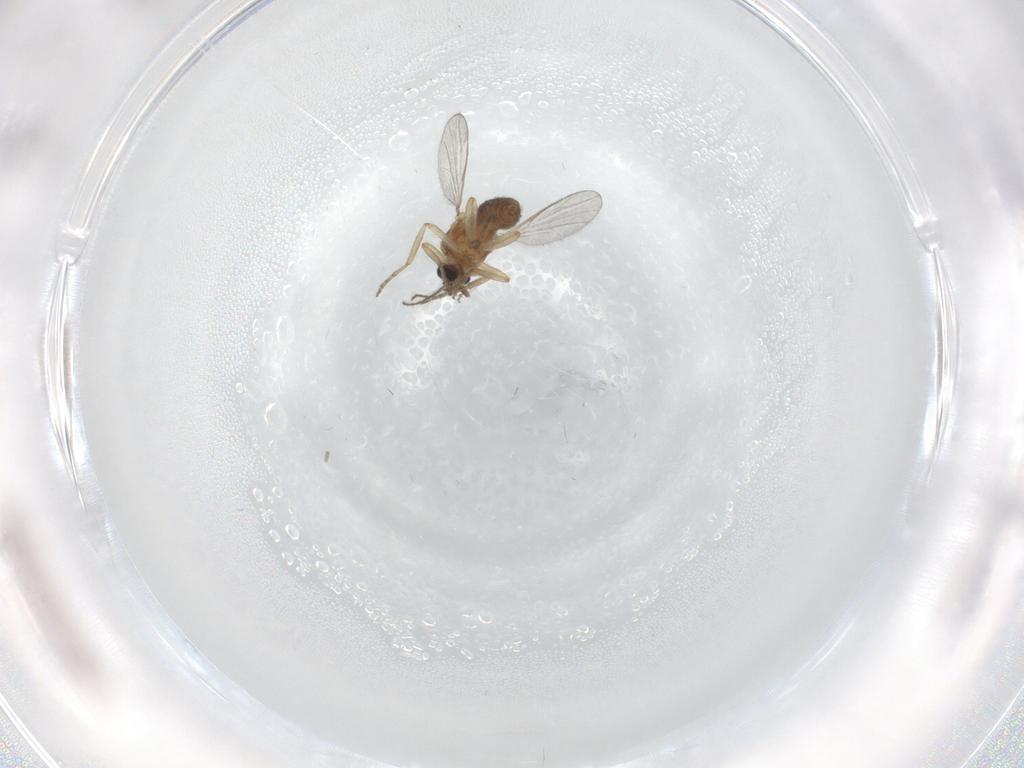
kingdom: Animalia
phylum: Arthropoda
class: Insecta
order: Diptera
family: Ceratopogonidae
